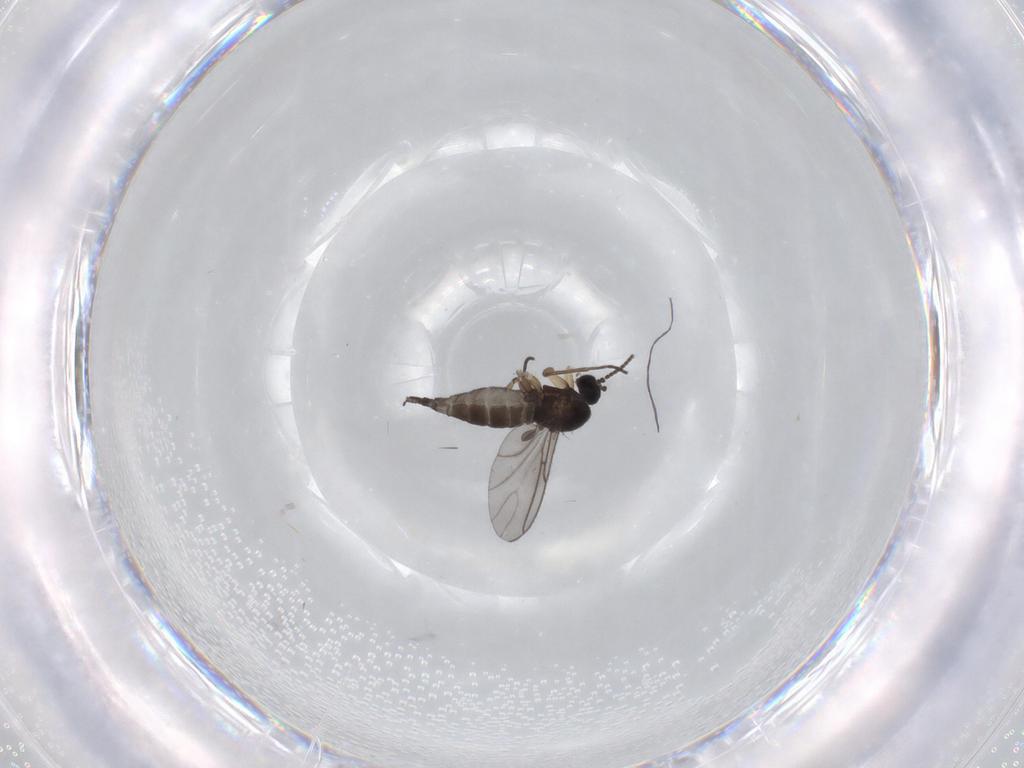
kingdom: Animalia
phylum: Arthropoda
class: Insecta
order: Diptera
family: Sciaridae
